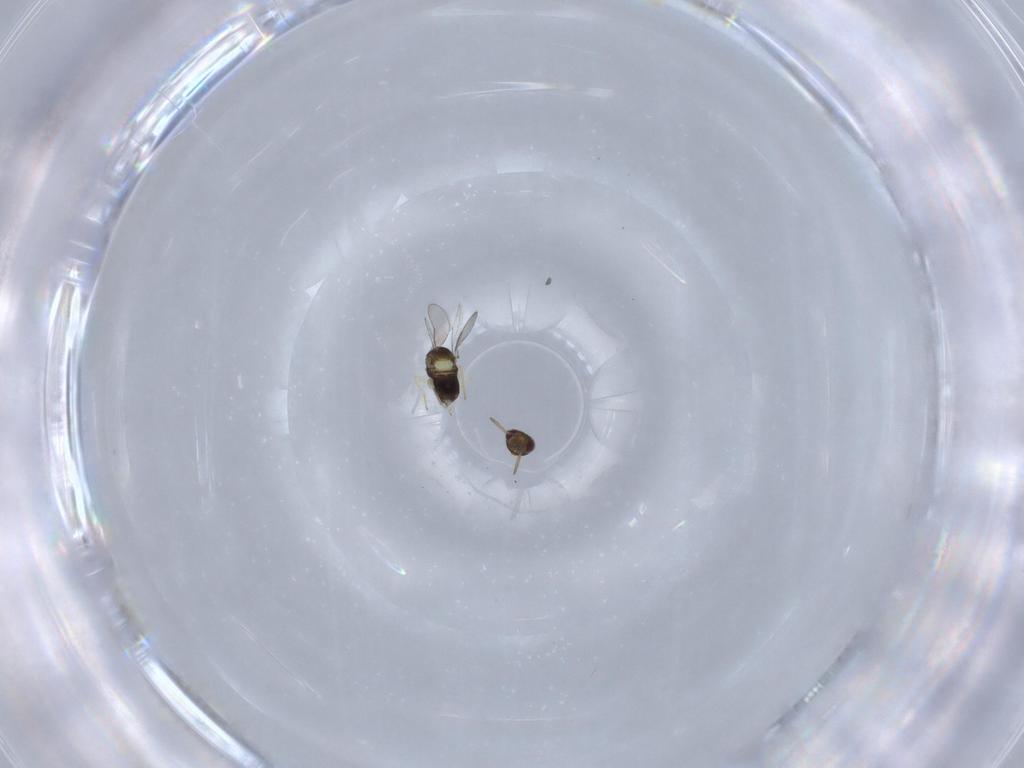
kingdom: Animalia
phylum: Arthropoda
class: Insecta
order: Hymenoptera
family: Aphelinidae
